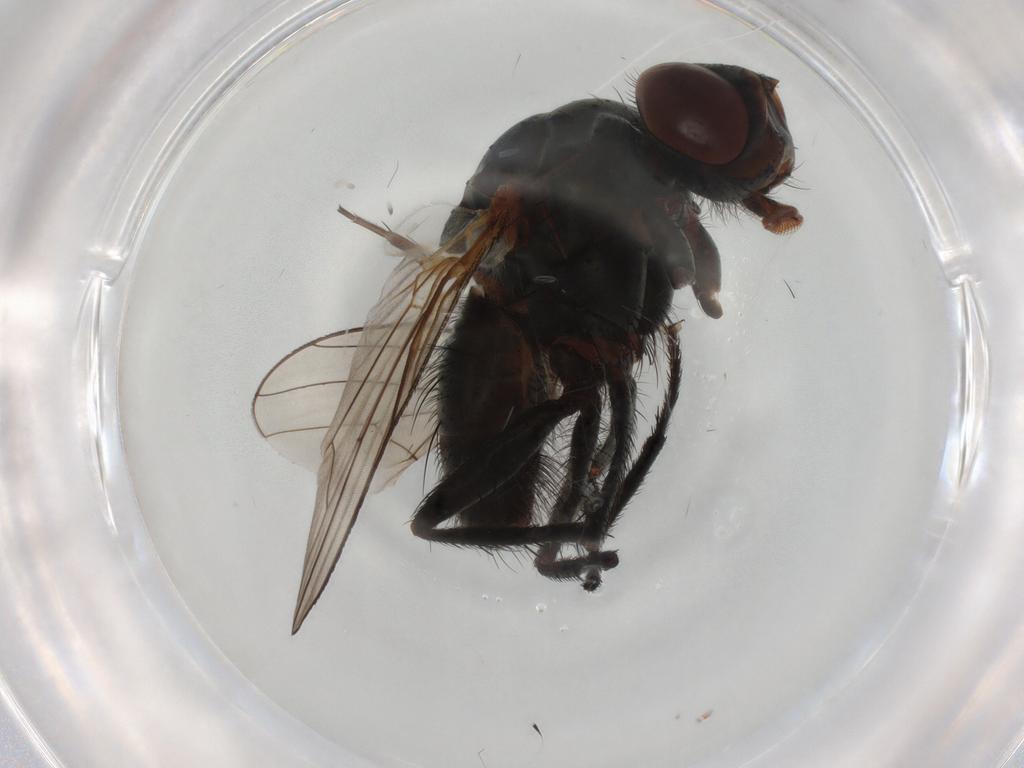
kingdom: Animalia
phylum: Arthropoda
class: Insecta
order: Diptera
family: Anthomyiidae
